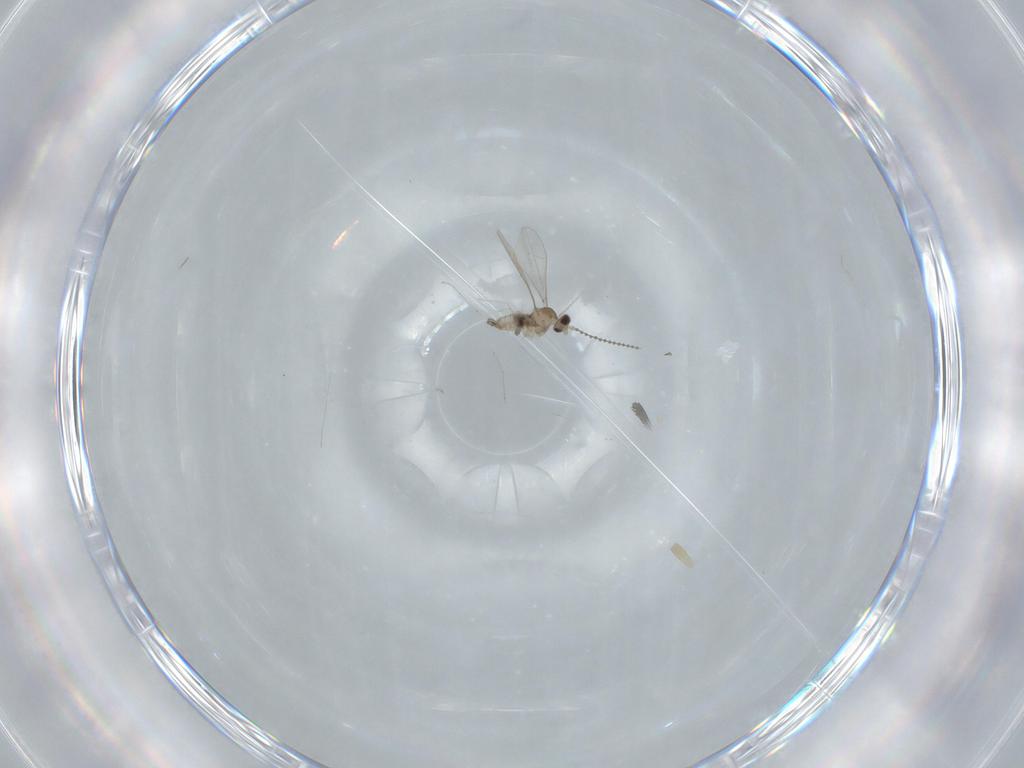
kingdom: Animalia
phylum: Arthropoda
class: Insecta
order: Diptera
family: Cecidomyiidae
